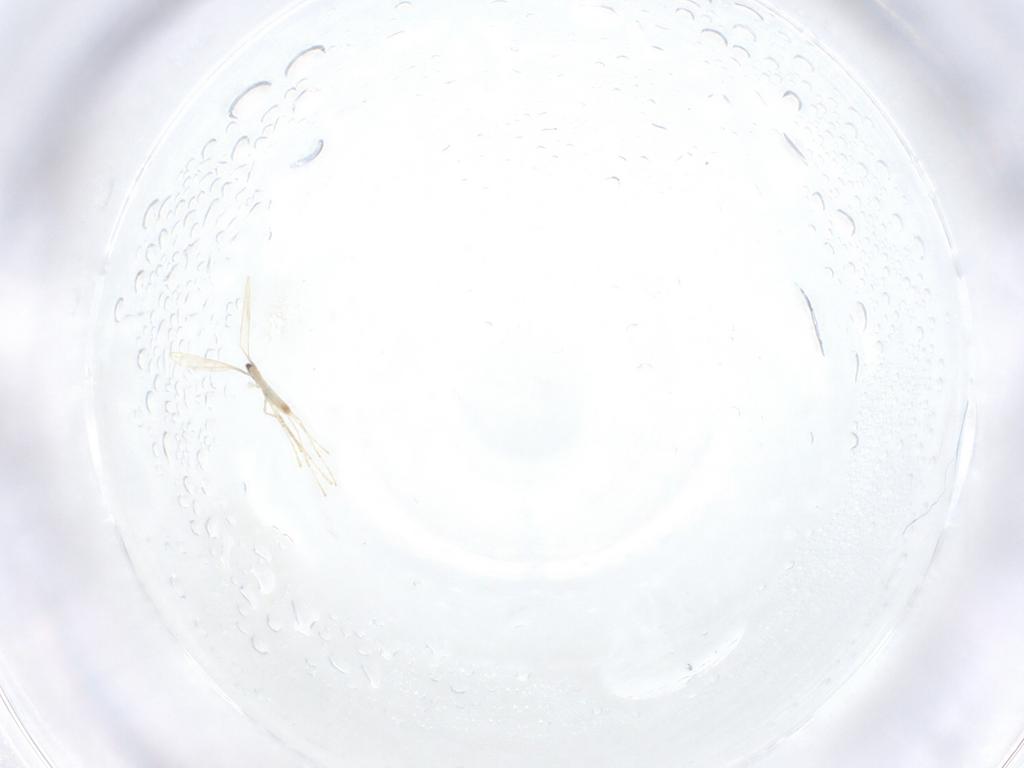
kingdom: Animalia
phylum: Arthropoda
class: Insecta
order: Diptera
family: Cecidomyiidae
